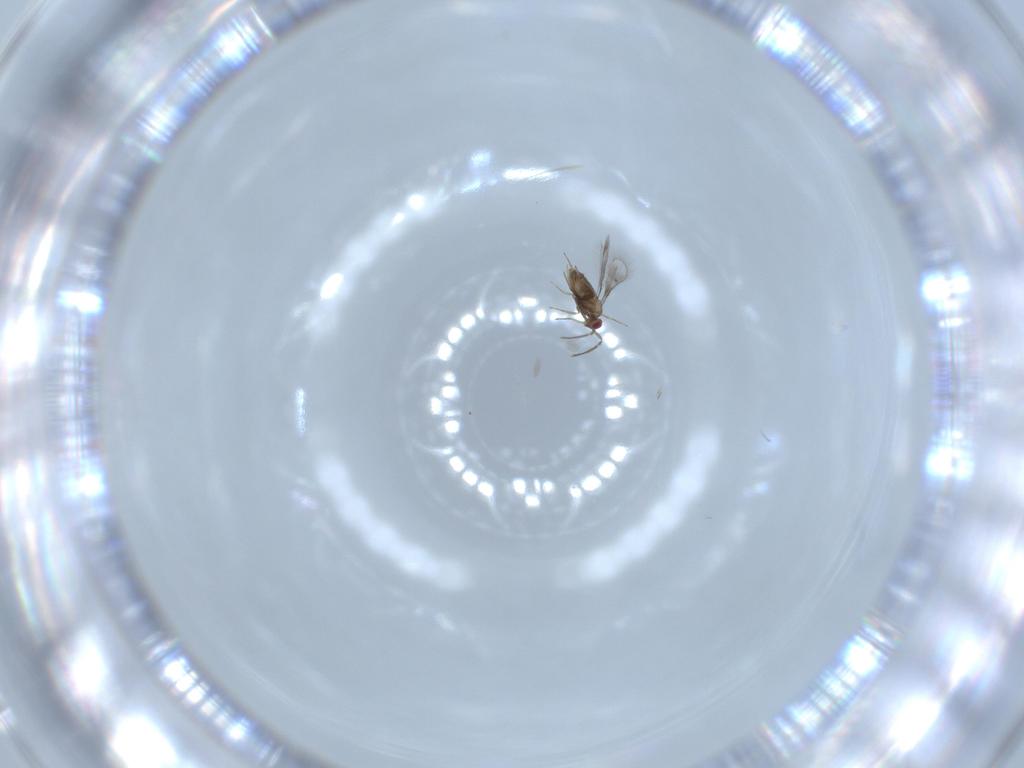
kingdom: Animalia
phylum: Arthropoda
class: Insecta
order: Hymenoptera
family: Trichogrammatidae
